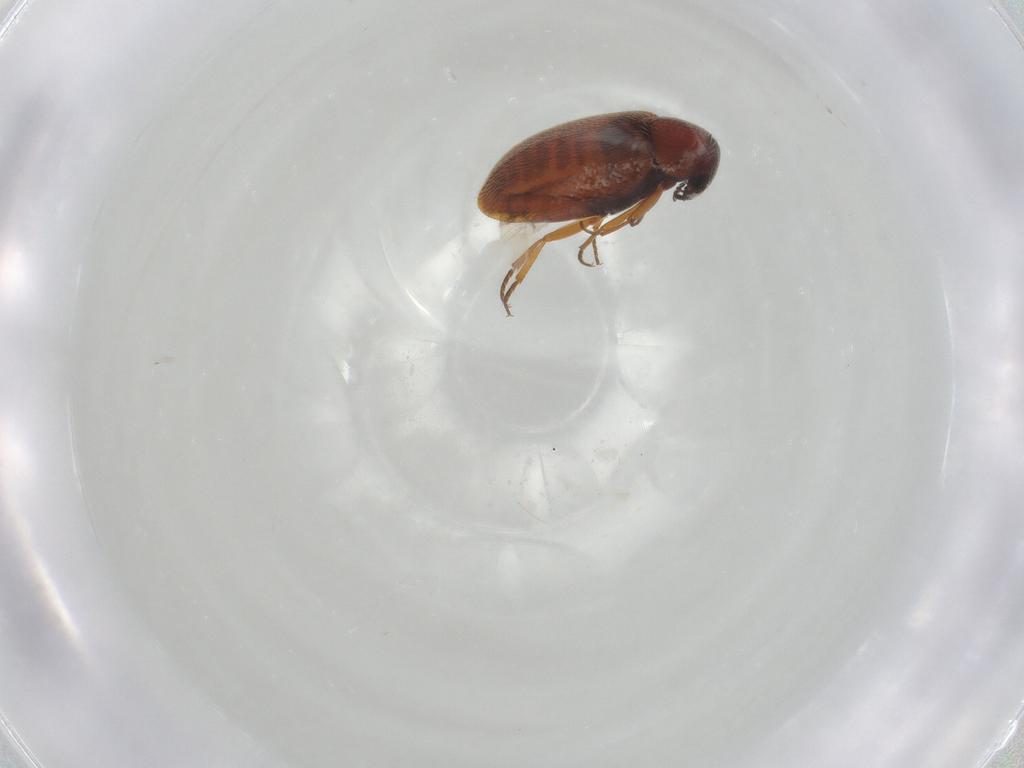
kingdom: Animalia
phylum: Arthropoda
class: Insecta
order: Coleoptera
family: Rhadalidae
